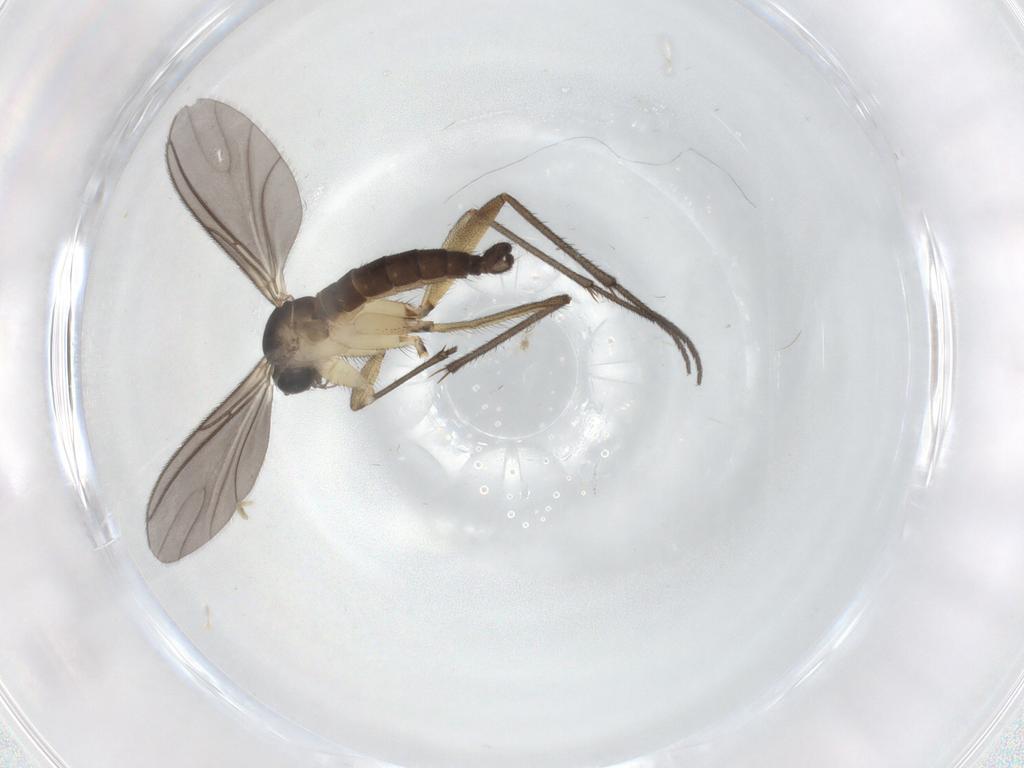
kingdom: Animalia
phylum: Arthropoda
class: Insecta
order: Diptera
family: Sciaridae
